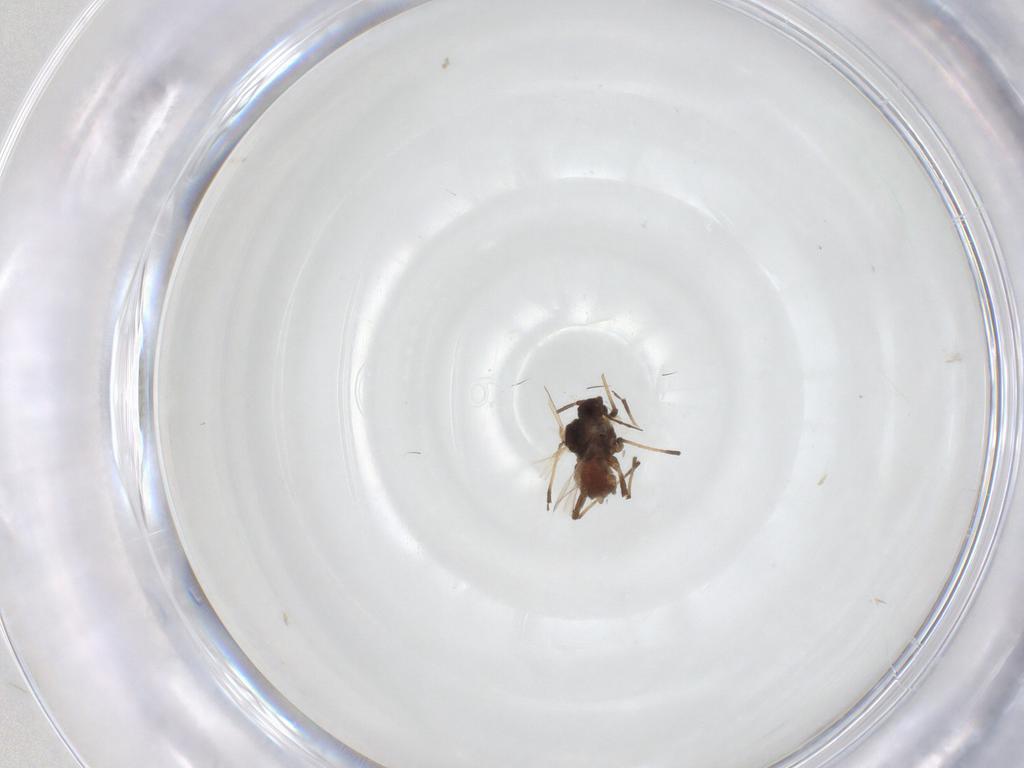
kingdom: Animalia
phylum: Arthropoda
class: Insecta
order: Hemiptera
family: Aphididae
